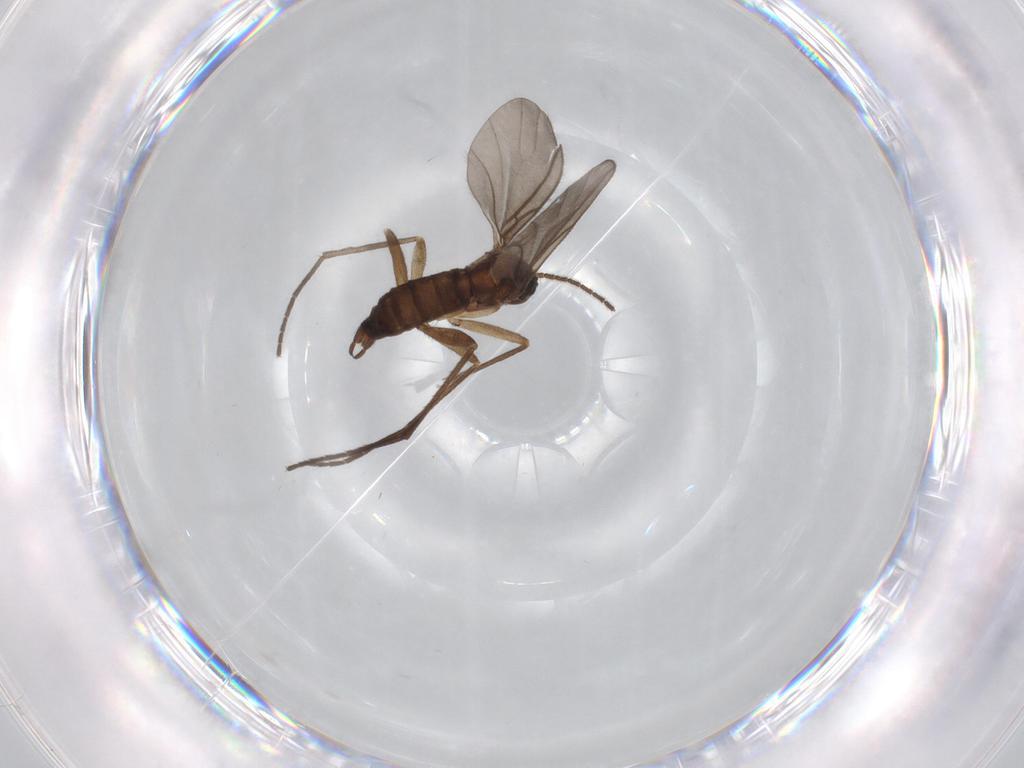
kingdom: Animalia
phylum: Arthropoda
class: Insecta
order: Diptera
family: Sciaridae
